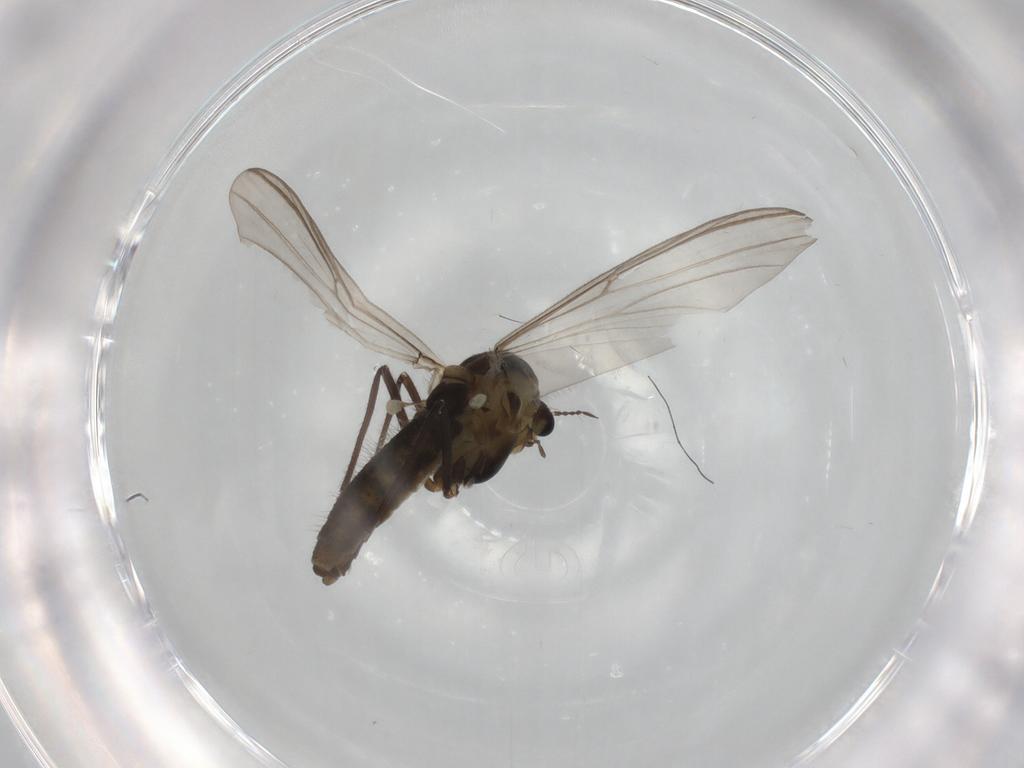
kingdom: Animalia
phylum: Arthropoda
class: Insecta
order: Diptera
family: Chironomidae
